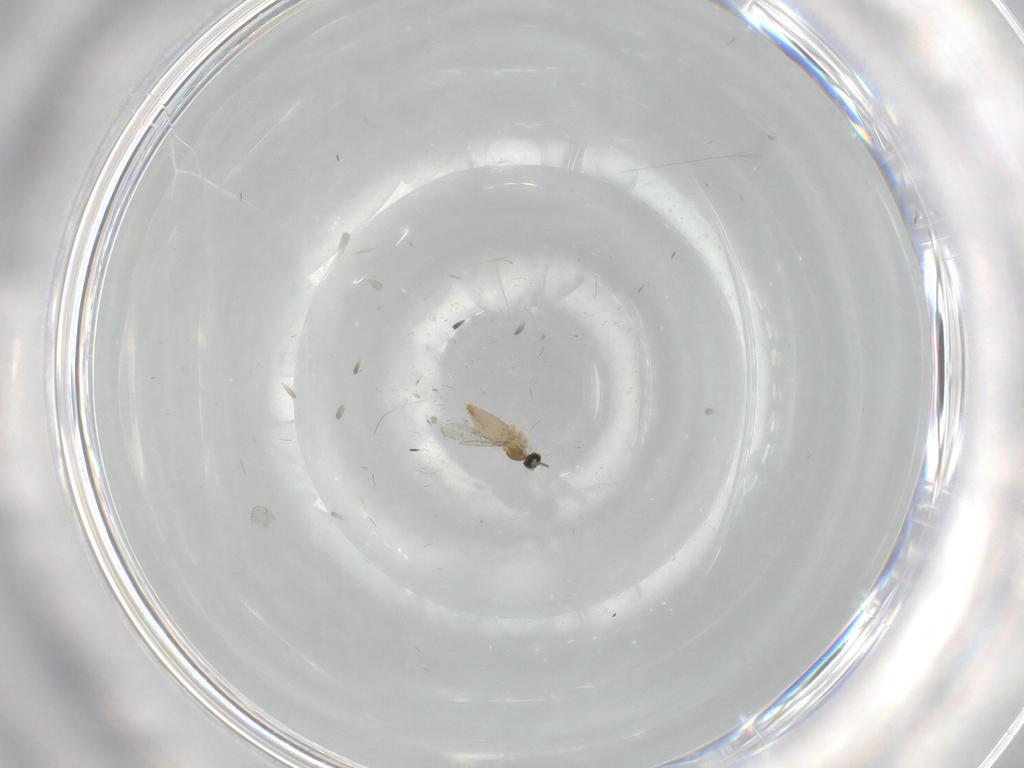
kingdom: Animalia
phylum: Arthropoda
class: Insecta
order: Diptera
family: Cecidomyiidae
